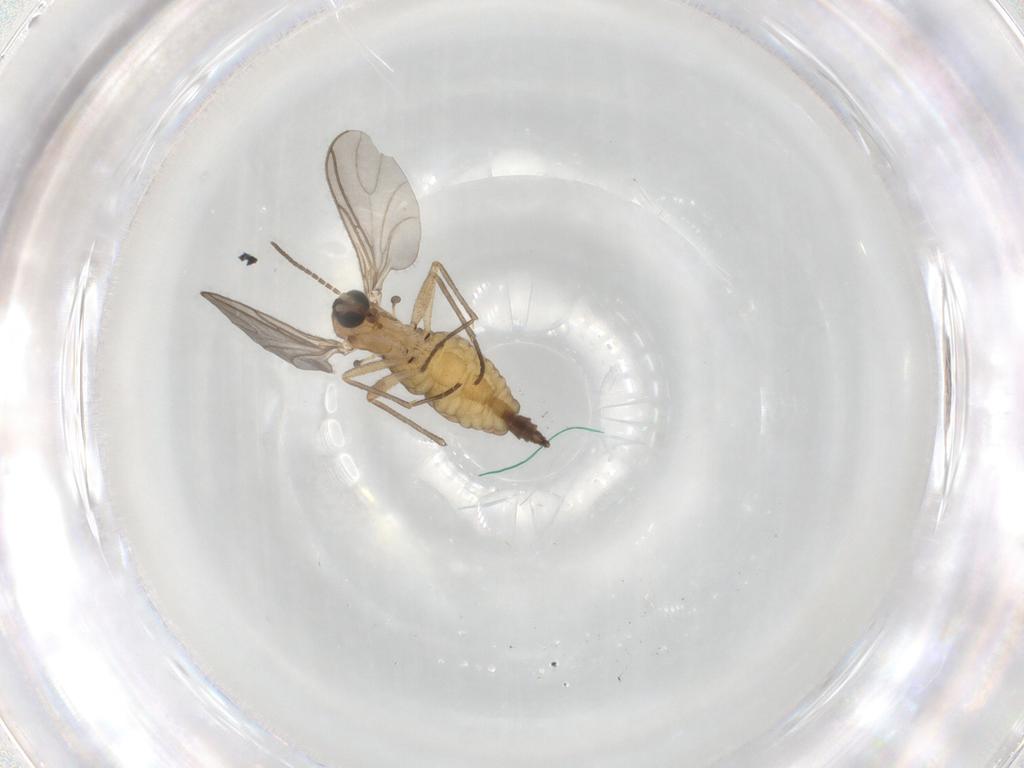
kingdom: Animalia
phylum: Arthropoda
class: Insecta
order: Diptera
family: Sciaridae
